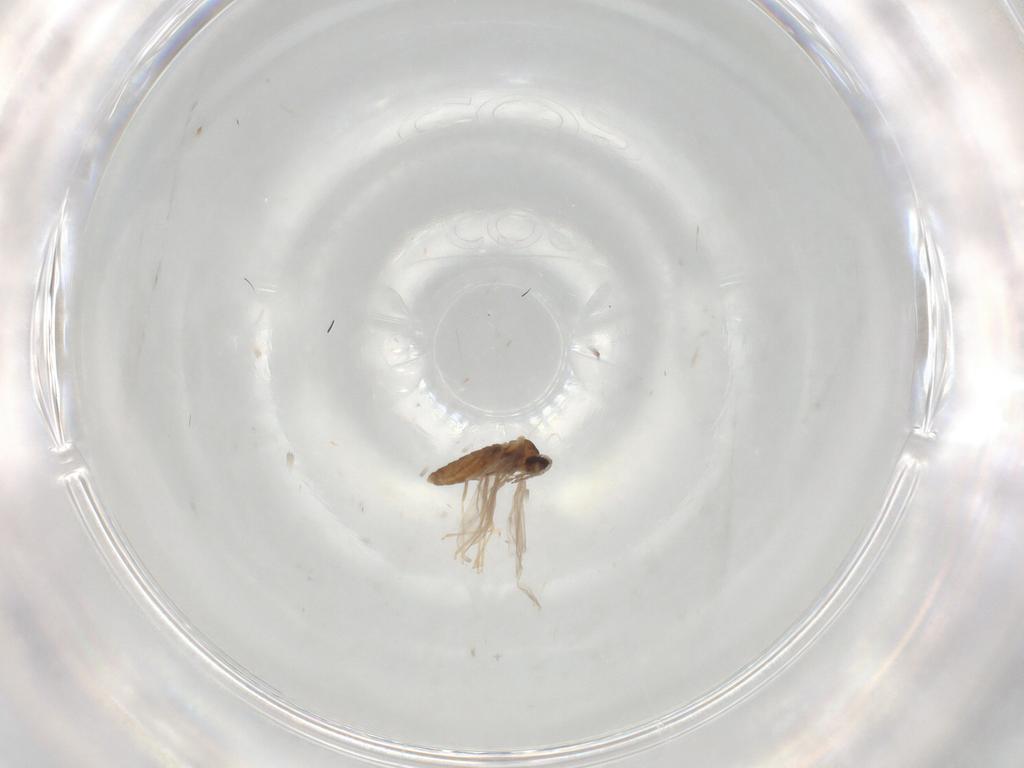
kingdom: Animalia
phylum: Arthropoda
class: Insecta
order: Diptera
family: Cecidomyiidae
